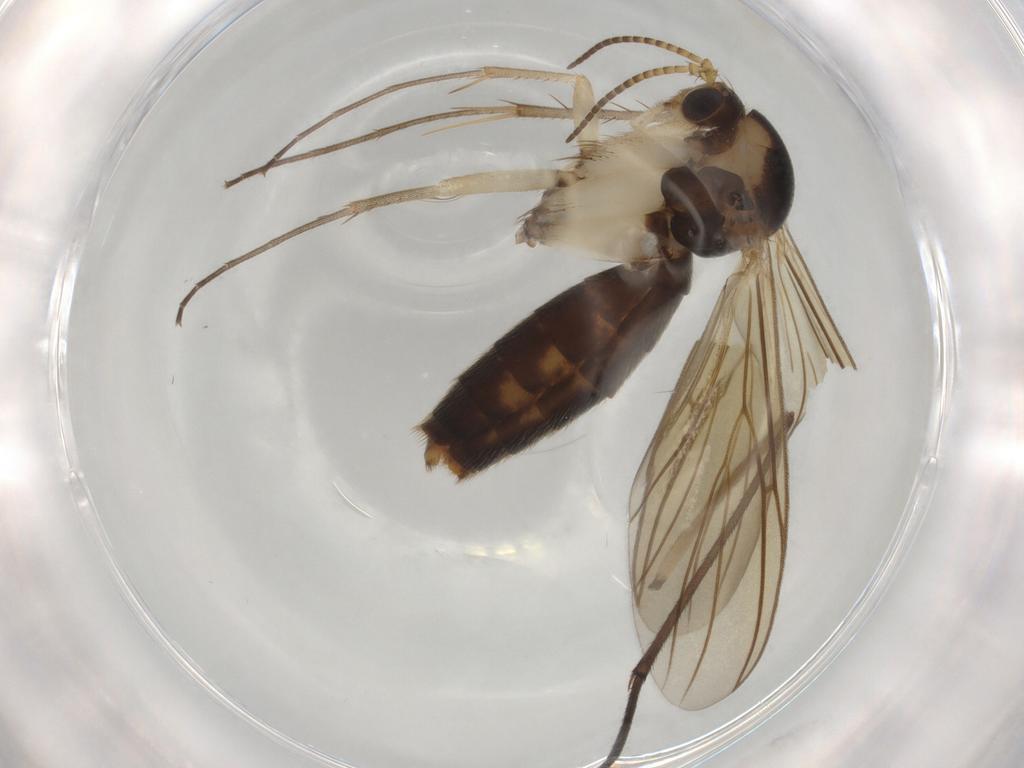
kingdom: Animalia
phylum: Arthropoda
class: Insecta
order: Diptera
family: Mycetophilidae
